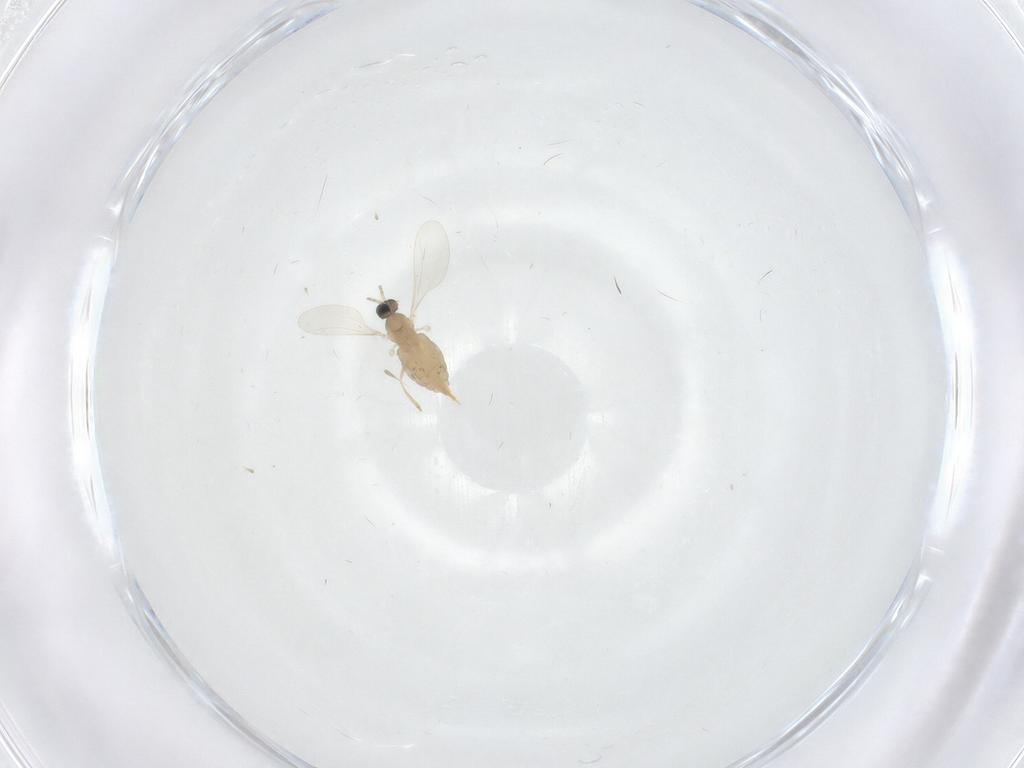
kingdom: Animalia
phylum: Arthropoda
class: Insecta
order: Diptera
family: Cecidomyiidae
